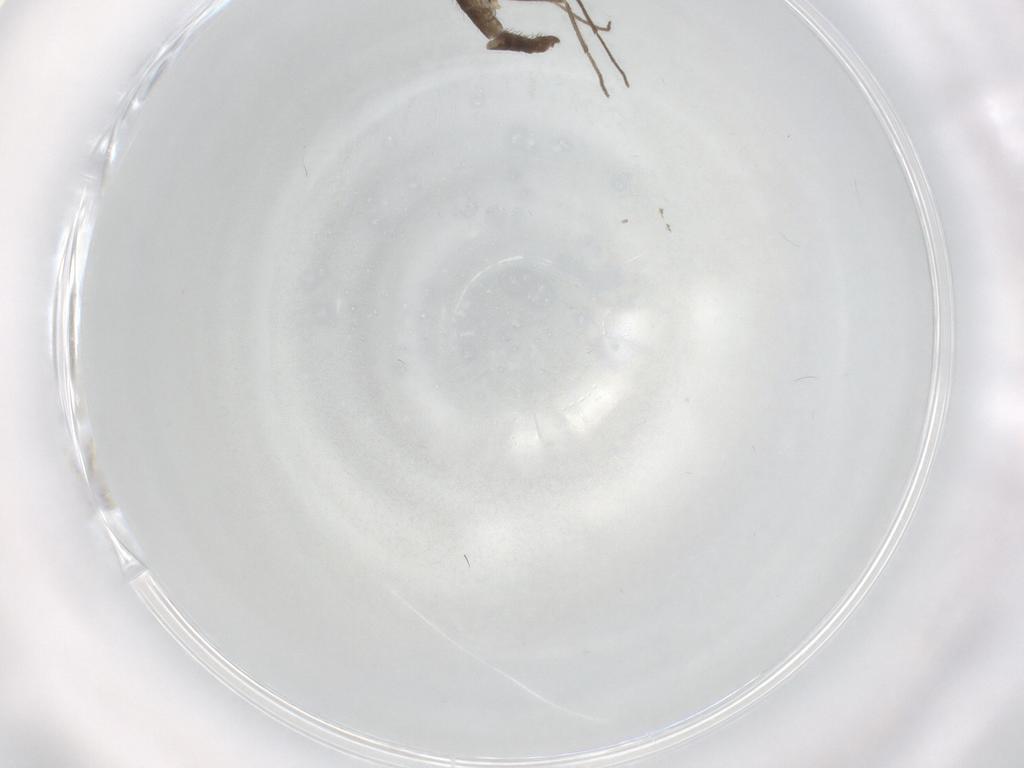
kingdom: Animalia
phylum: Arthropoda
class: Insecta
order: Diptera
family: Chironomidae
